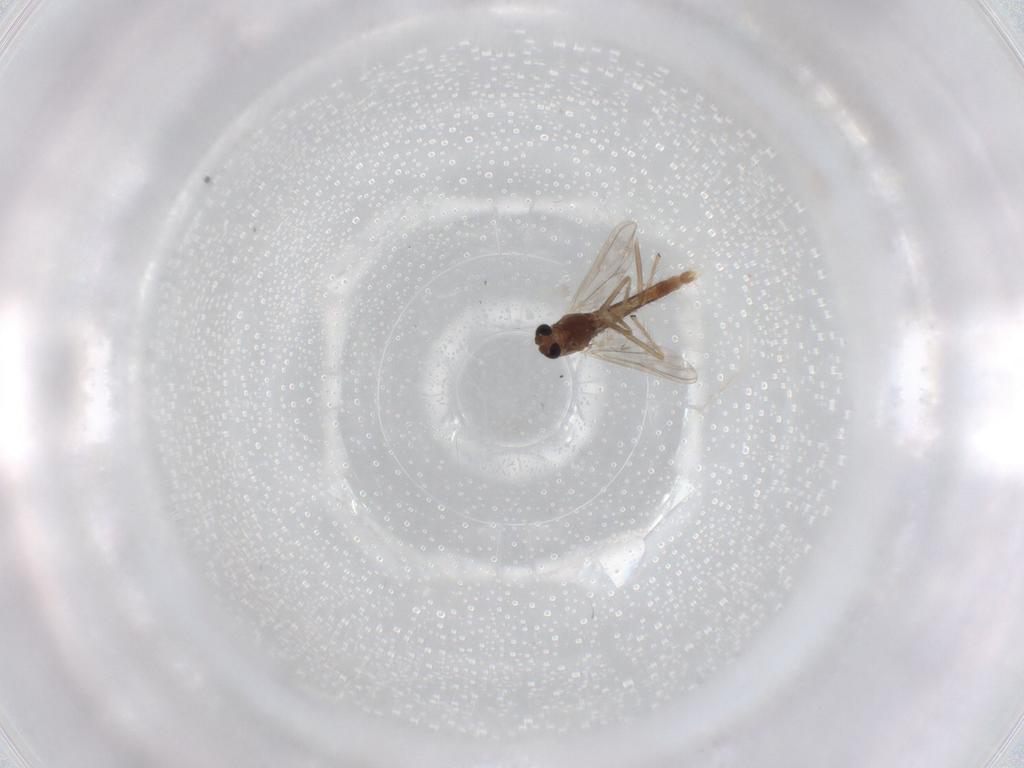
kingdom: Animalia
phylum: Arthropoda
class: Insecta
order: Diptera
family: Chironomidae
